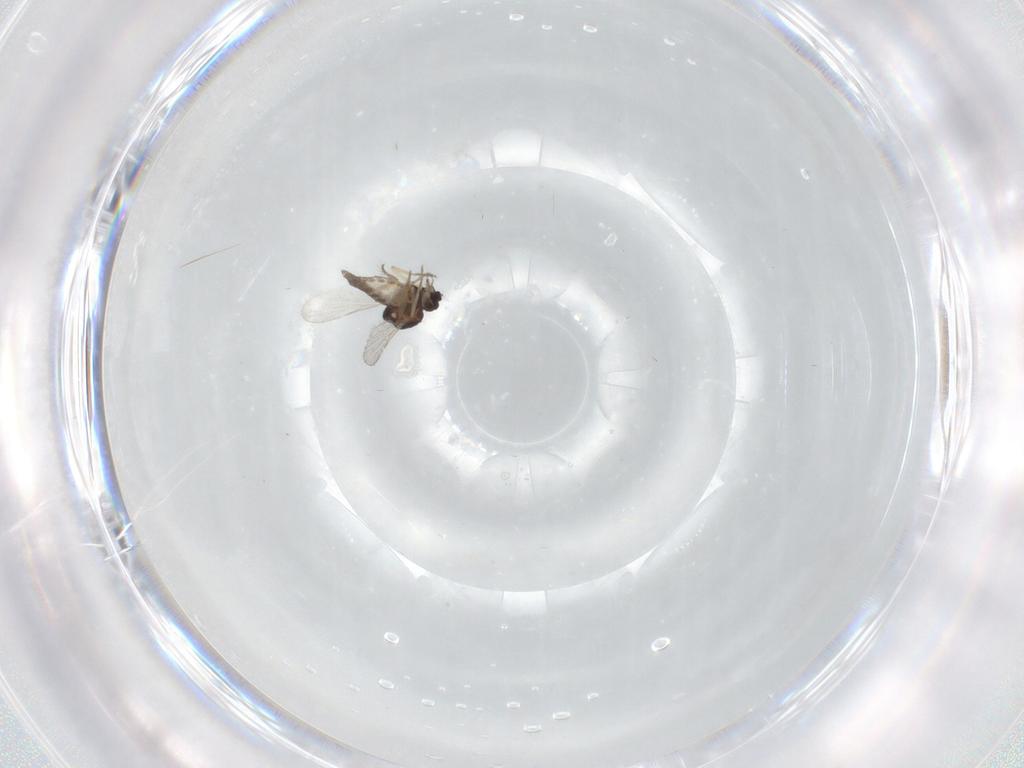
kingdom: Animalia
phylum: Arthropoda
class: Insecta
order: Diptera
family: Ceratopogonidae
